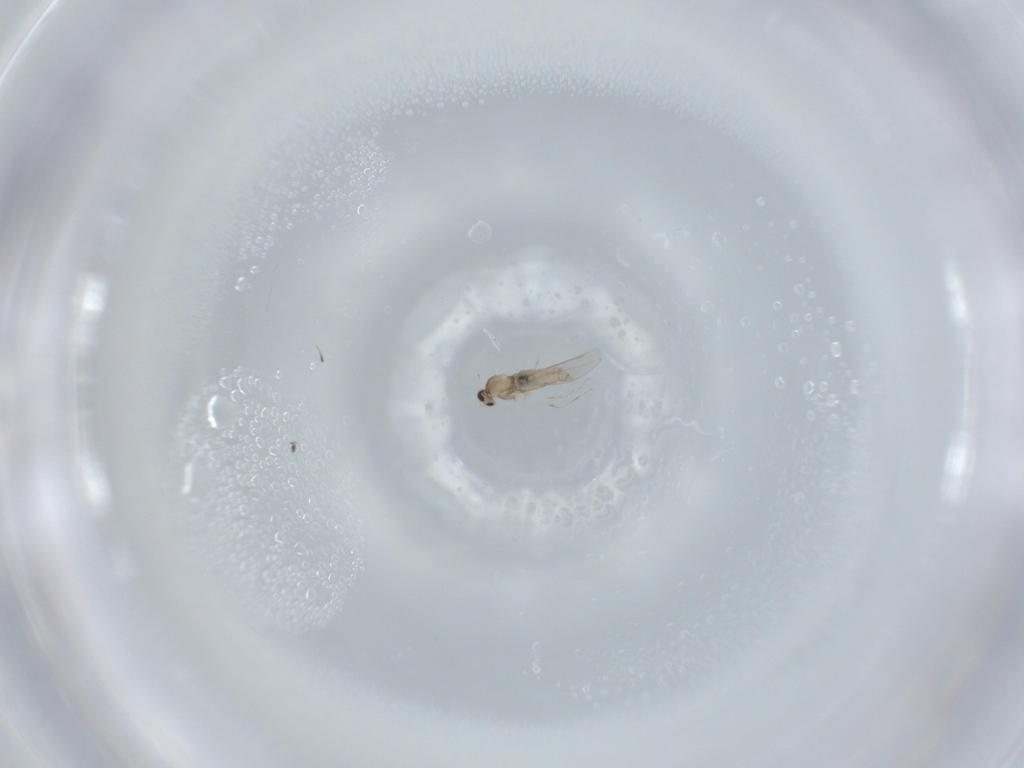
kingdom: Animalia
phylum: Arthropoda
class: Insecta
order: Diptera
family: Cecidomyiidae
